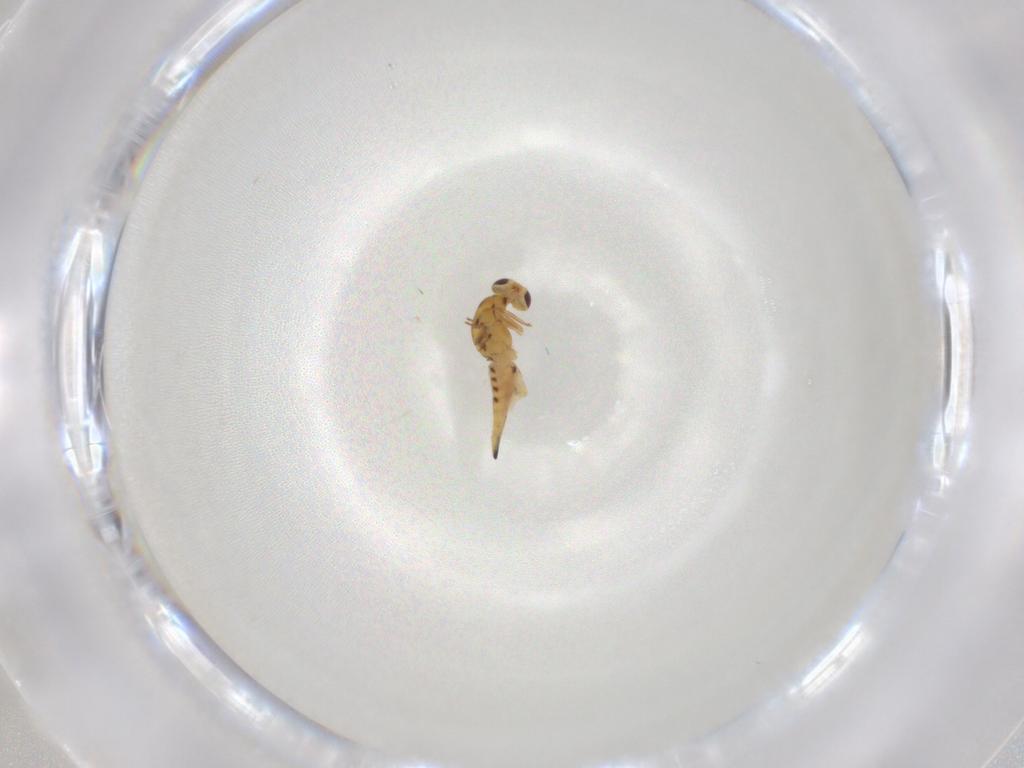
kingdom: Animalia
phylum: Arthropoda
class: Insecta
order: Hymenoptera
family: Eulophidae
